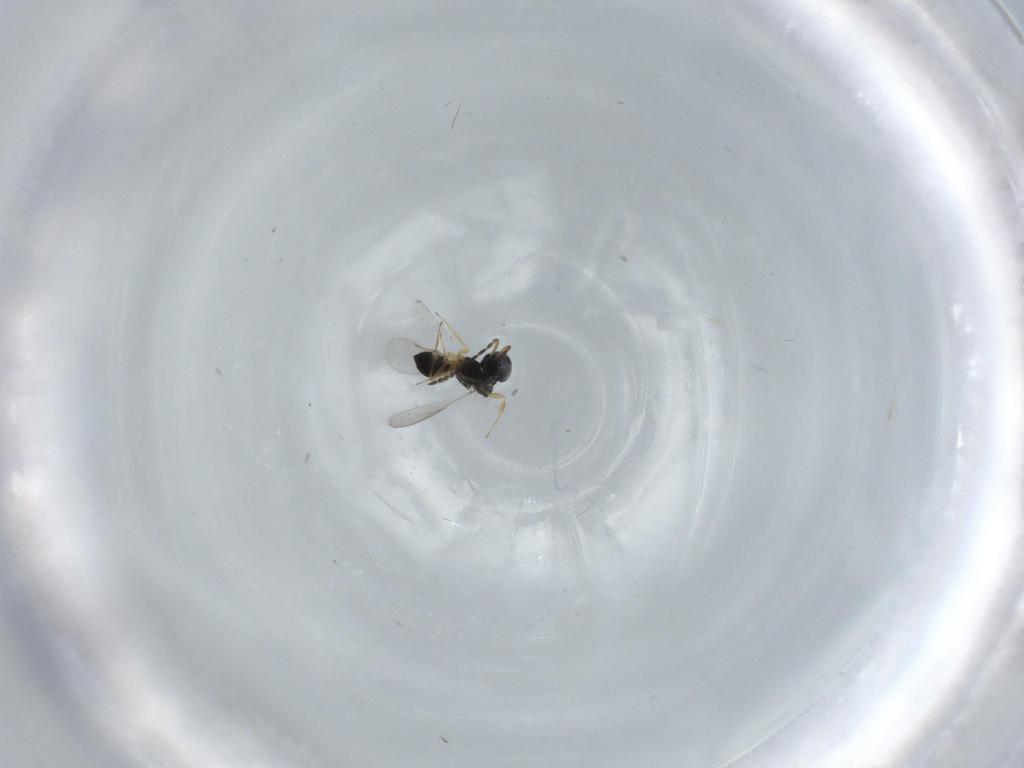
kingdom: Animalia
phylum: Arthropoda
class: Insecta
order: Hymenoptera
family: Scelionidae
